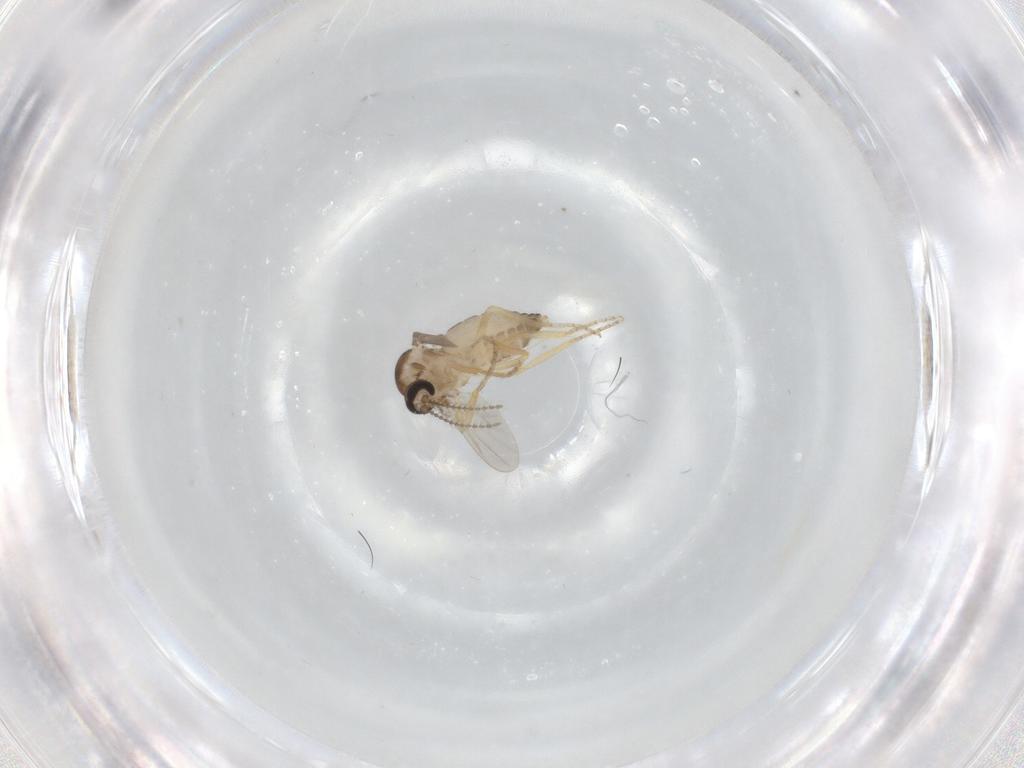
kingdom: Animalia
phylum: Arthropoda
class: Insecta
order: Diptera
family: Ceratopogonidae
